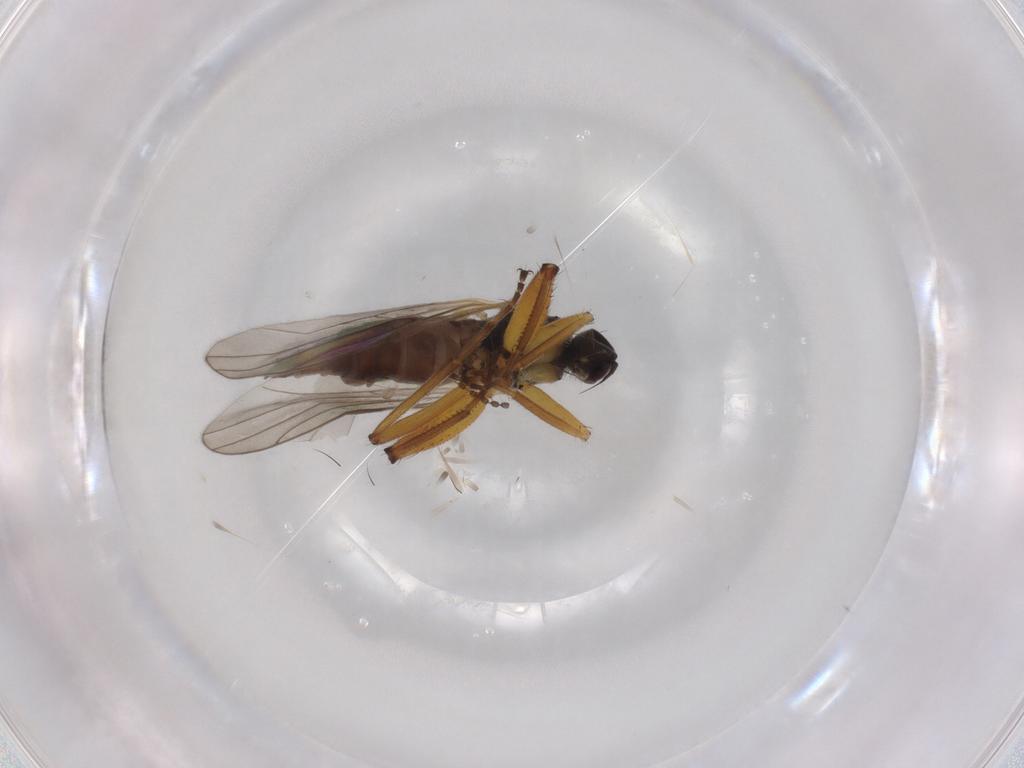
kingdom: Animalia
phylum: Arthropoda
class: Insecta
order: Diptera
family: Hybotidae
